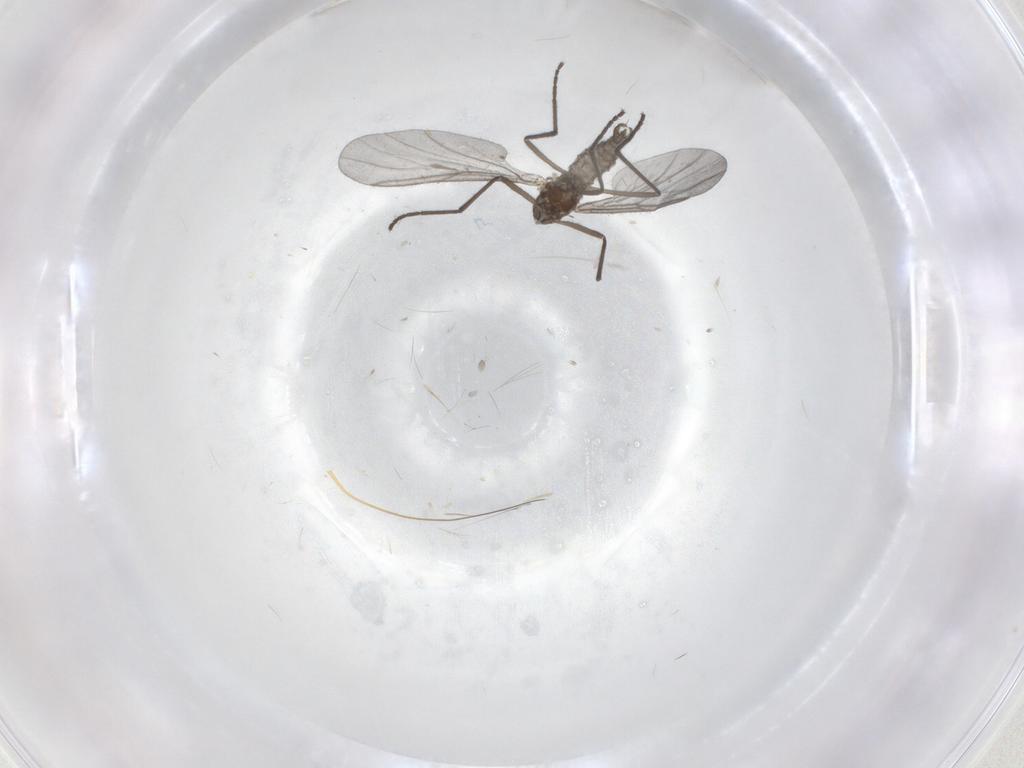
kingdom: Animalia
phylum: Arthropoda
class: Insecta
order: Diptera
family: Cecidomyiidae
